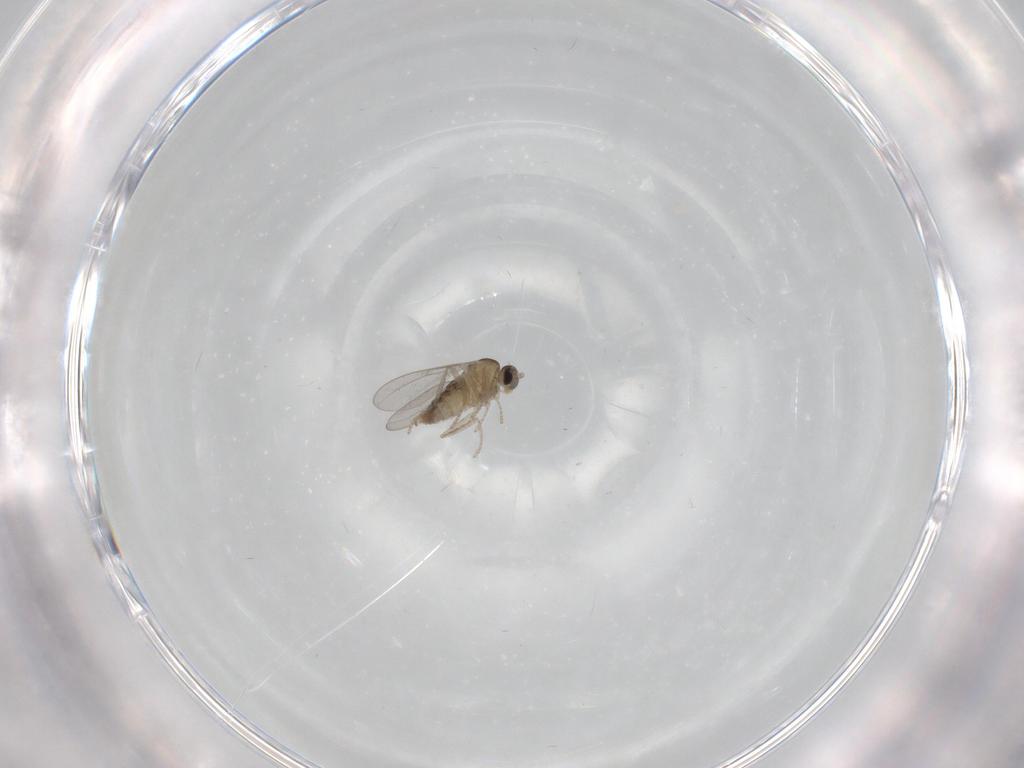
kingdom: Animalia
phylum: Arthropoda
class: Insecta
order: Diptera
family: Cecidomyiidae
